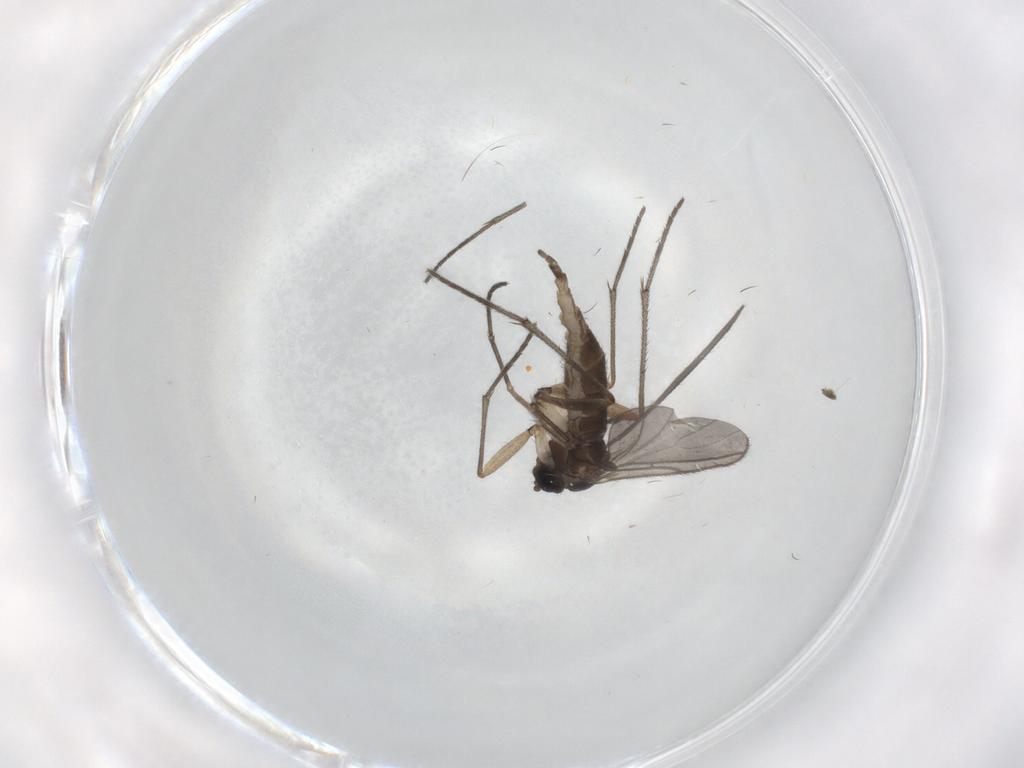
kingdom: Animalia
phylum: Arthropoda
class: Insecta
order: Diptera
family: Sciaridae
